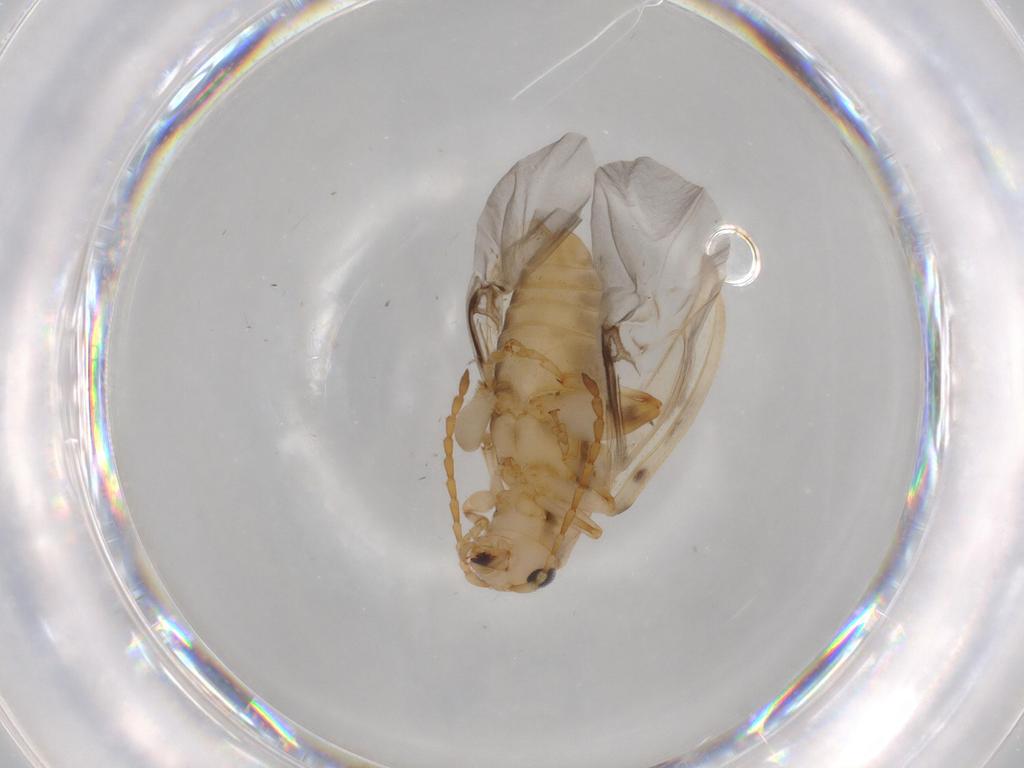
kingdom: Animalia
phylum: Arthropoda
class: Insecta
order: Coleoptera
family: Chrysomelidae
